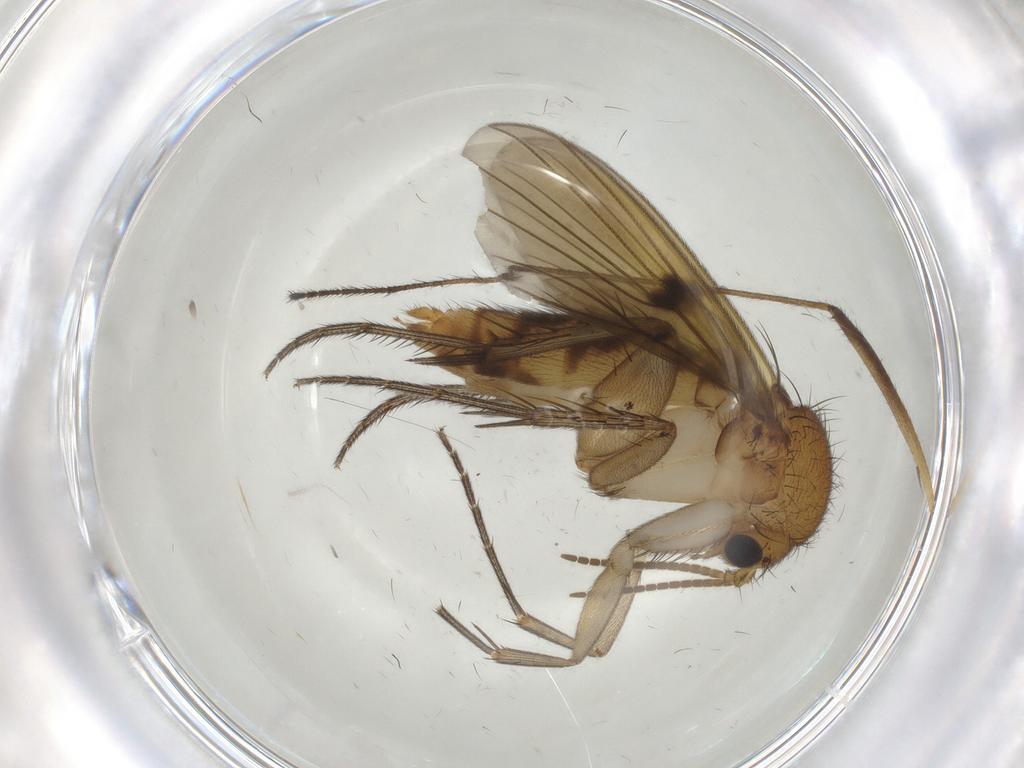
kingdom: Animalia
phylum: Arthropoda
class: Insecta
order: Diptera
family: Mycetophilidae
